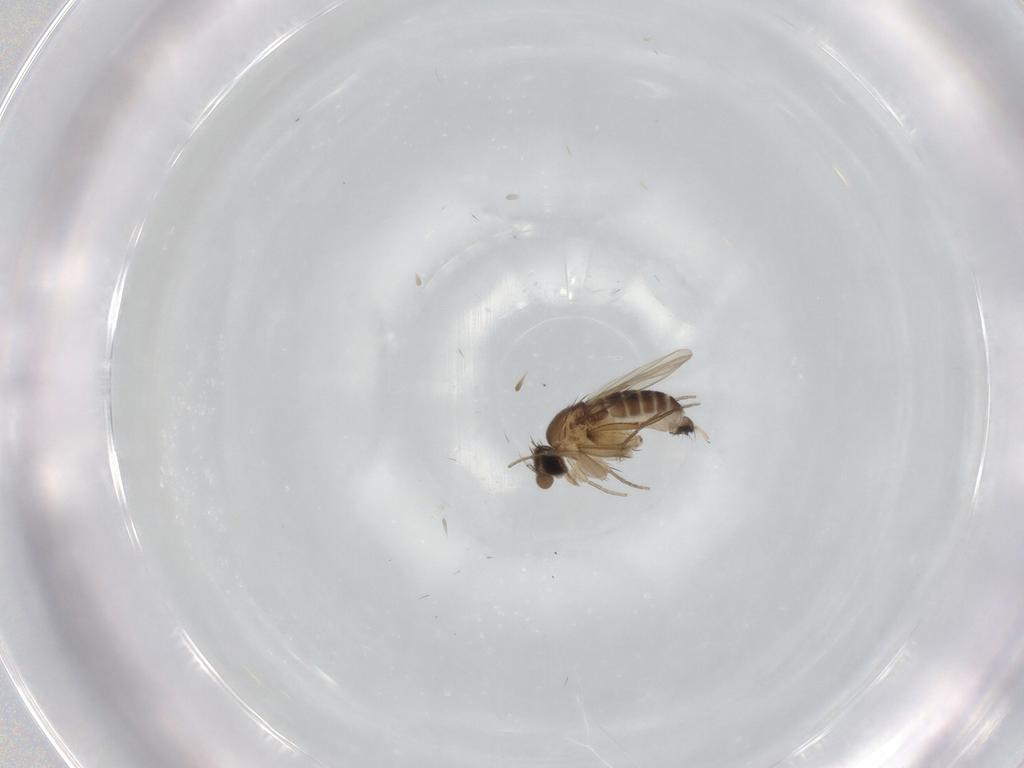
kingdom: Animalia
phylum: Arthropoda
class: Insecta
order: Diptera
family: Phoridae
